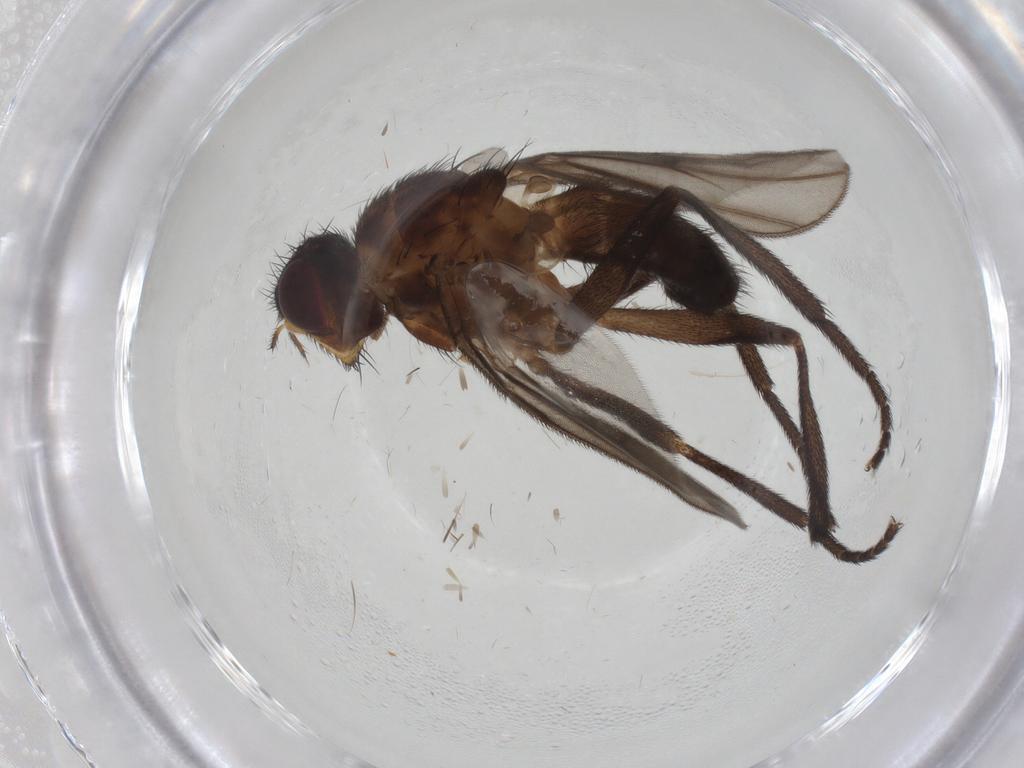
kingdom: Animalia
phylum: Arthropoda
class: Insecta
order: Diptera
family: Calliphoridae
